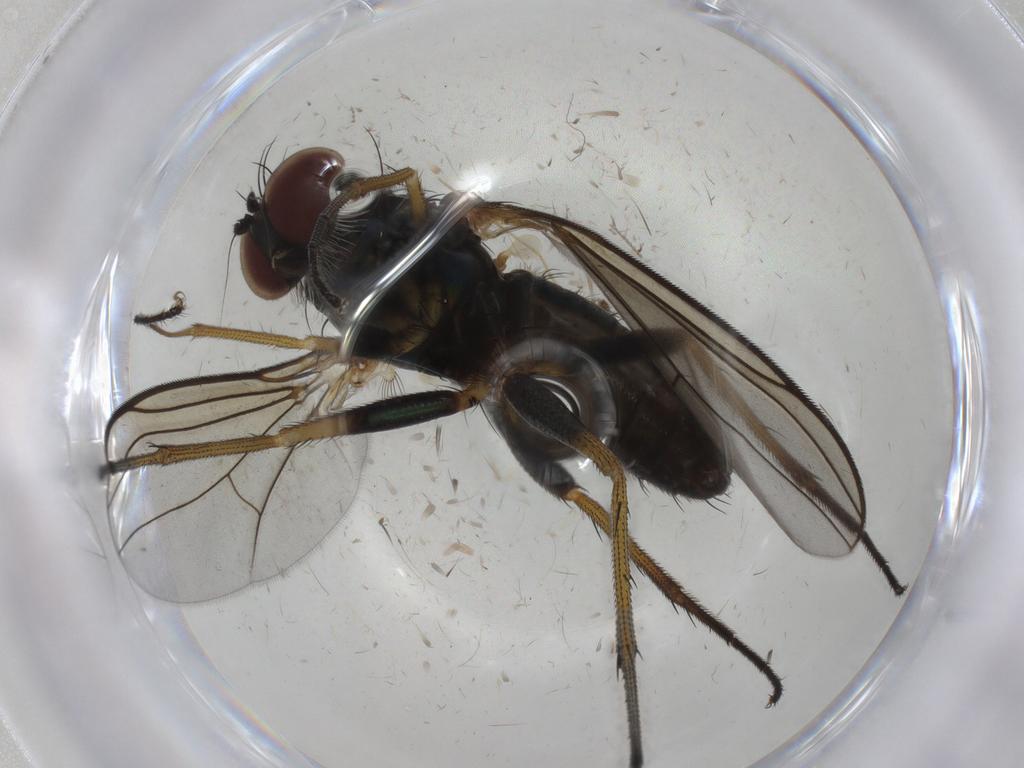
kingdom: Animalia
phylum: Arthropoda
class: Insecta
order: Diptera
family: Dolichopodidae
